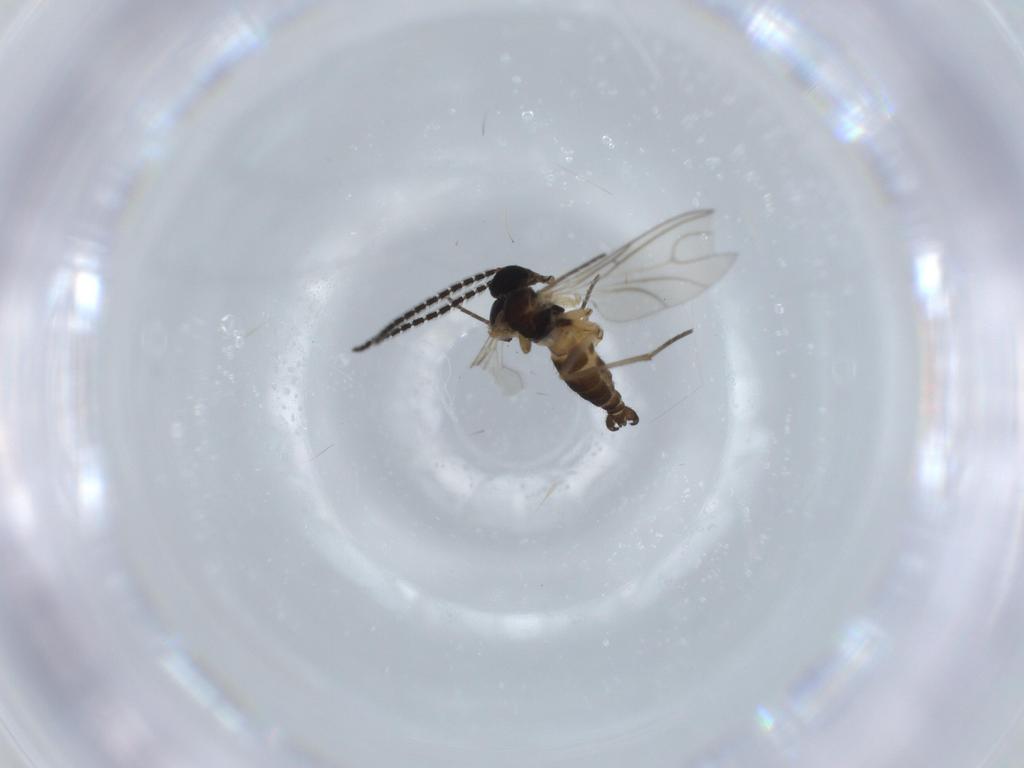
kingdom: Animalia
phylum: Arthropoda
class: Insecta
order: Diptera
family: Sciaridae
